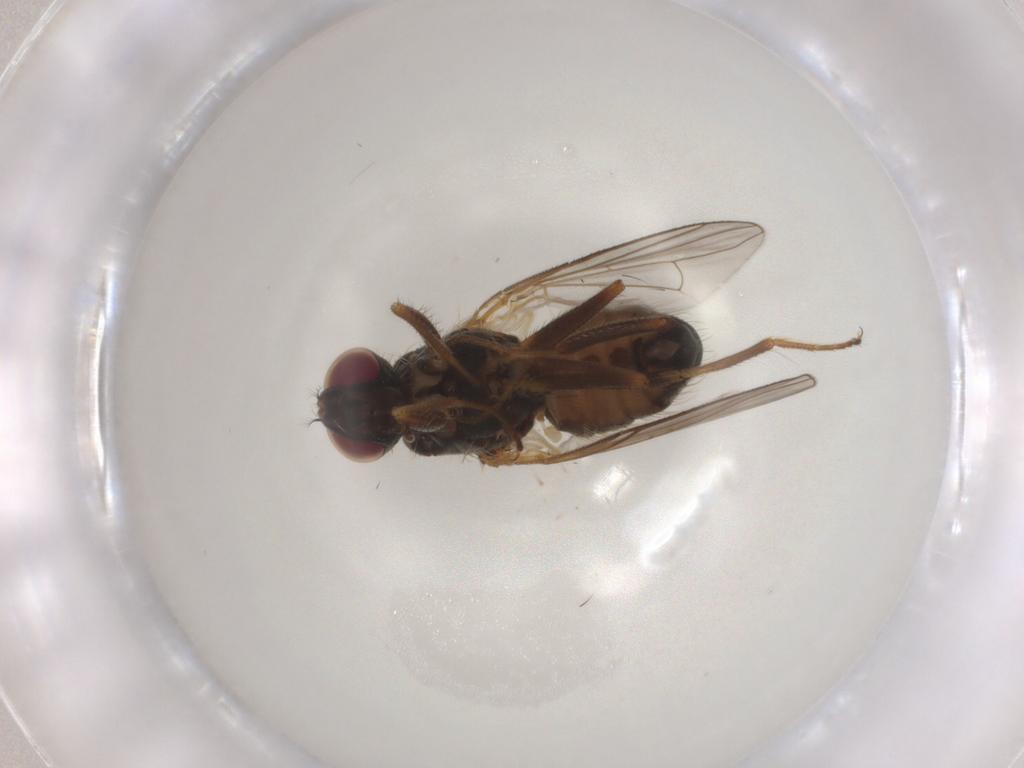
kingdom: Animalia
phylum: Arthropoda
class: Insecta
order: Diptera
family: Muscidae
